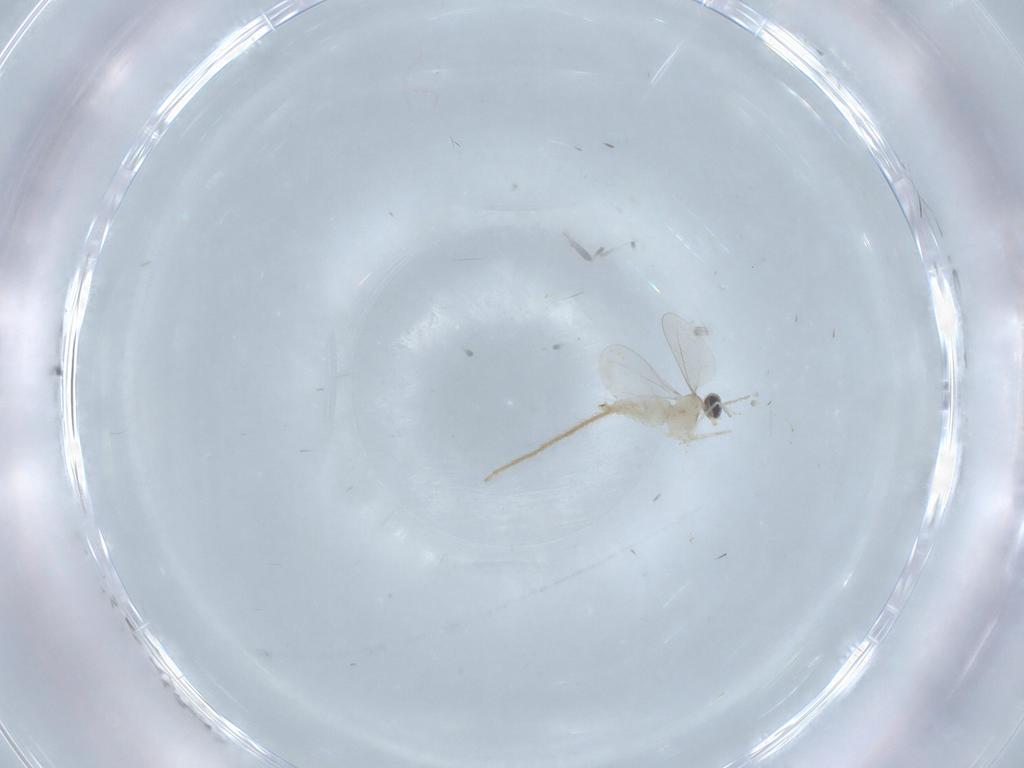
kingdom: Animalia
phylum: Arthropoda
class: Insecta
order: Diptera
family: Cecidomyiidae
